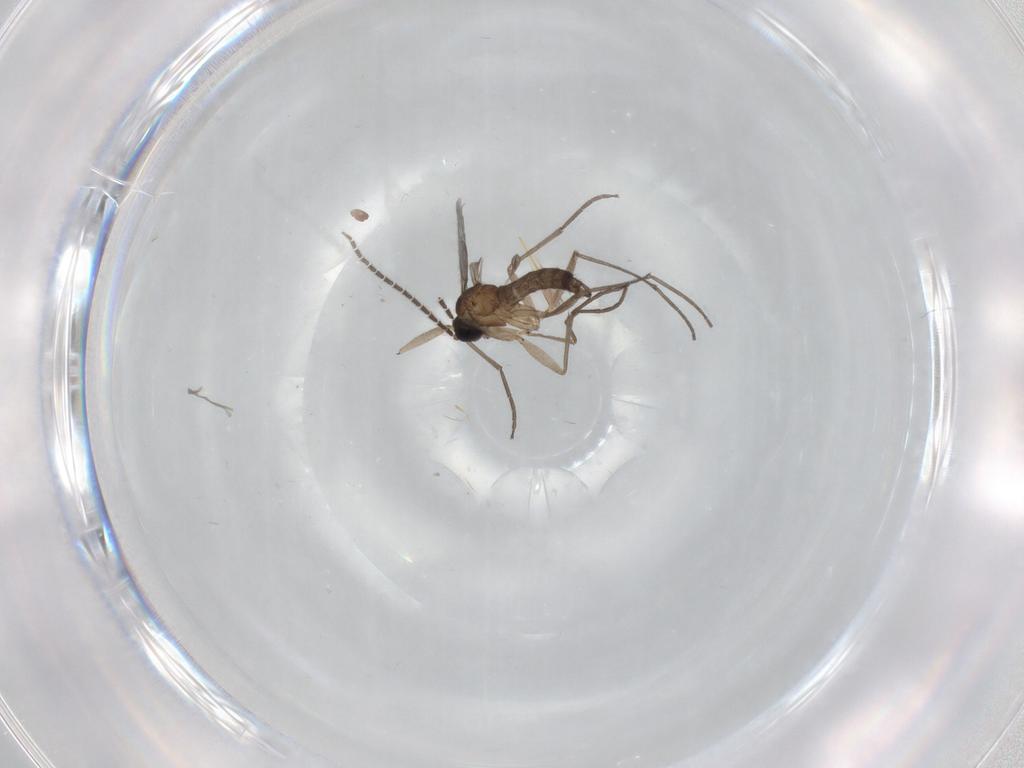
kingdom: Animalia
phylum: Arthropoda
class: Insecta
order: Diptera
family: Sciaridae
